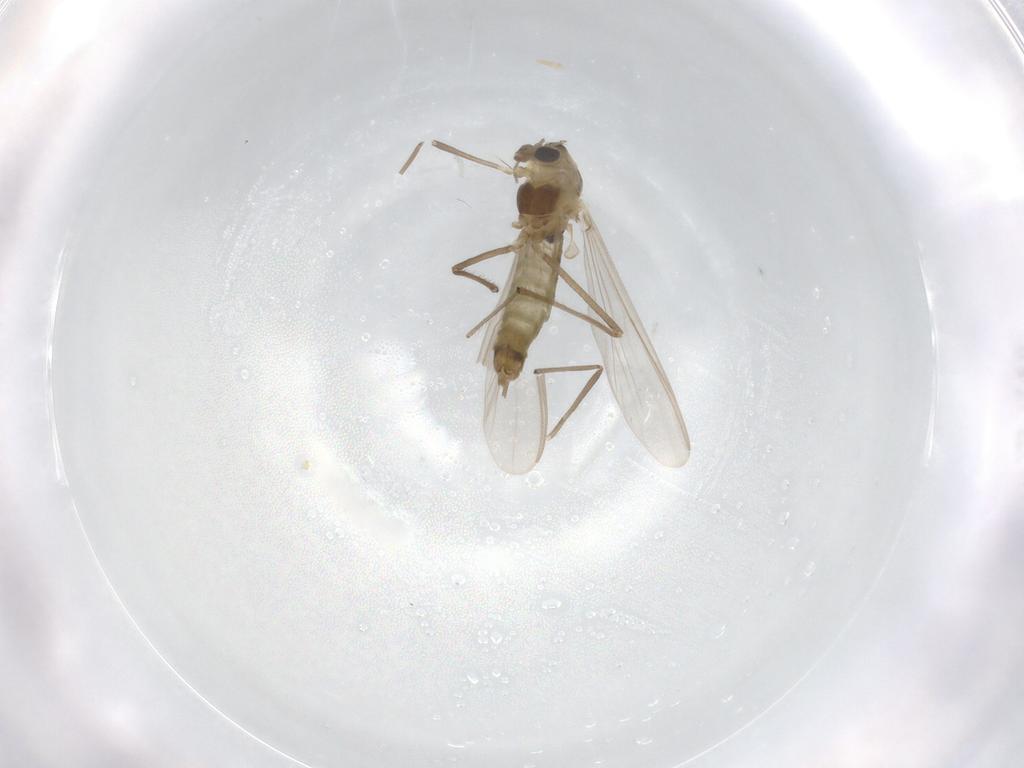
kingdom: Animalia
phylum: Arthropoda
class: Insecta
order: Diptera
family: Chironomidae
